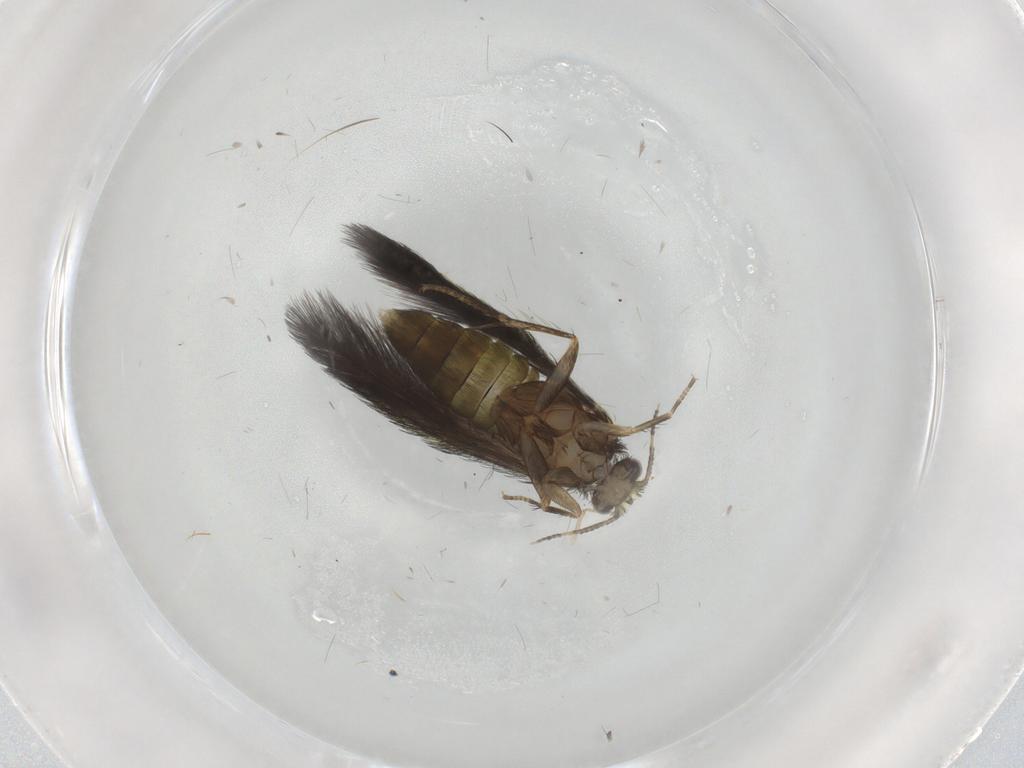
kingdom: Animalia
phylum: Arthropoda
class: Insecta
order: Trichoptera
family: Hydroptilidae
